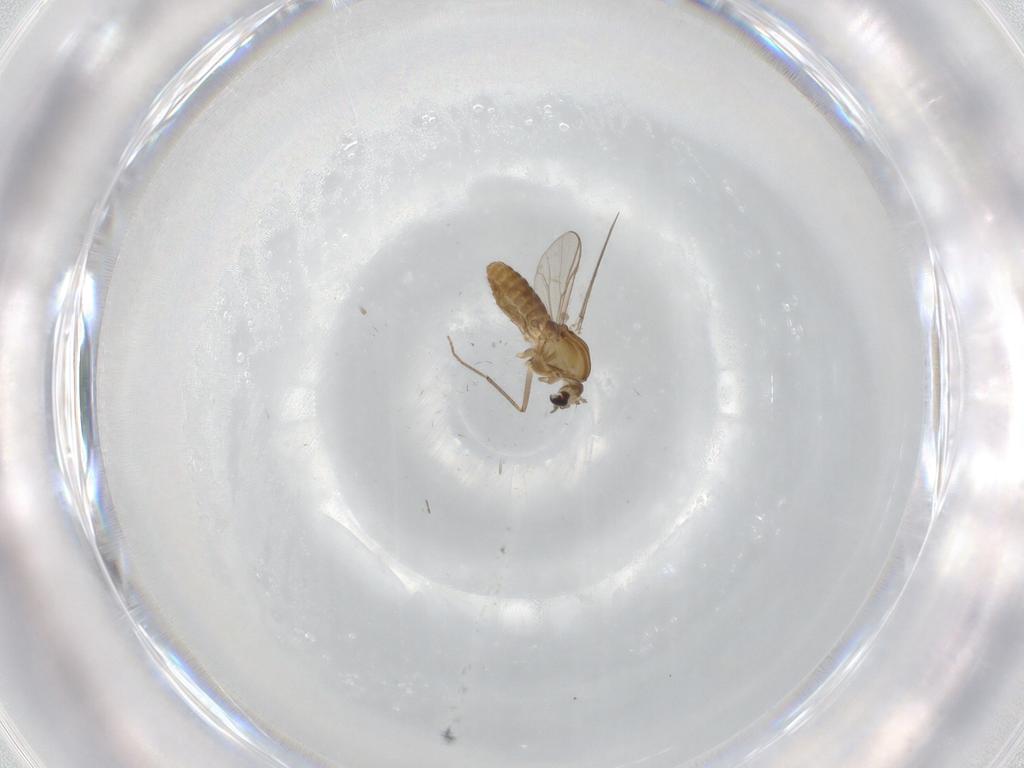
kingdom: Animalia
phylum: Arthropoda
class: Insecta
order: Diptera
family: Chironomidae
